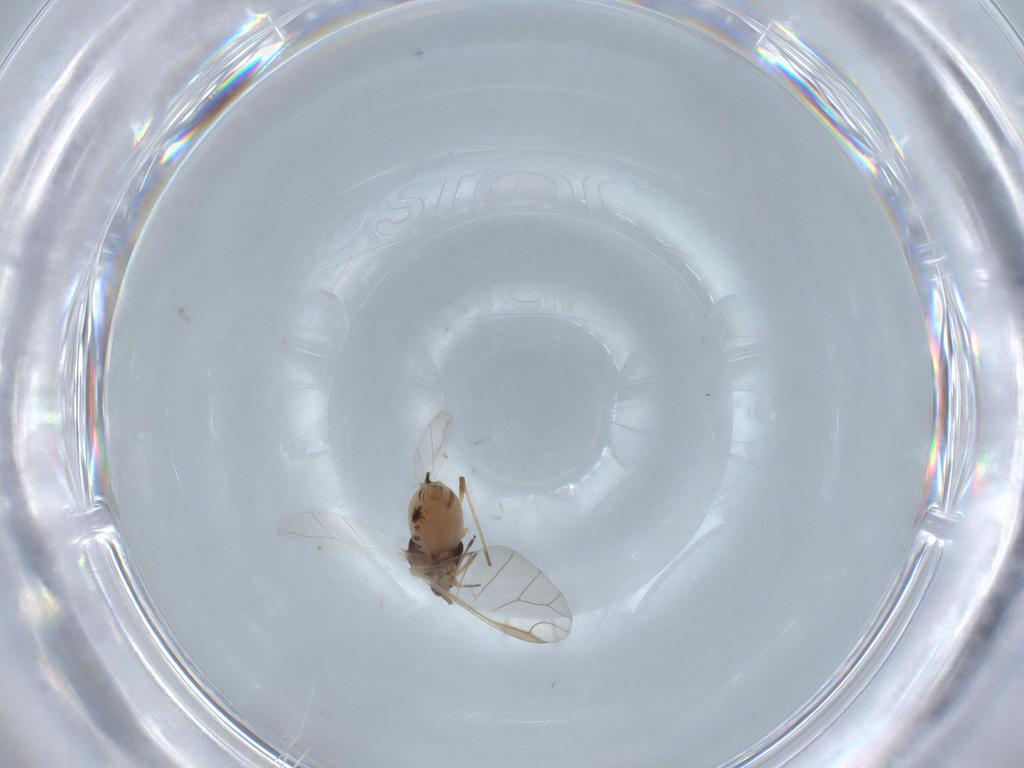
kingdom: Animalia
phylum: Arthropoda
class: Insecta
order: Hemiptera
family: Aphididae
